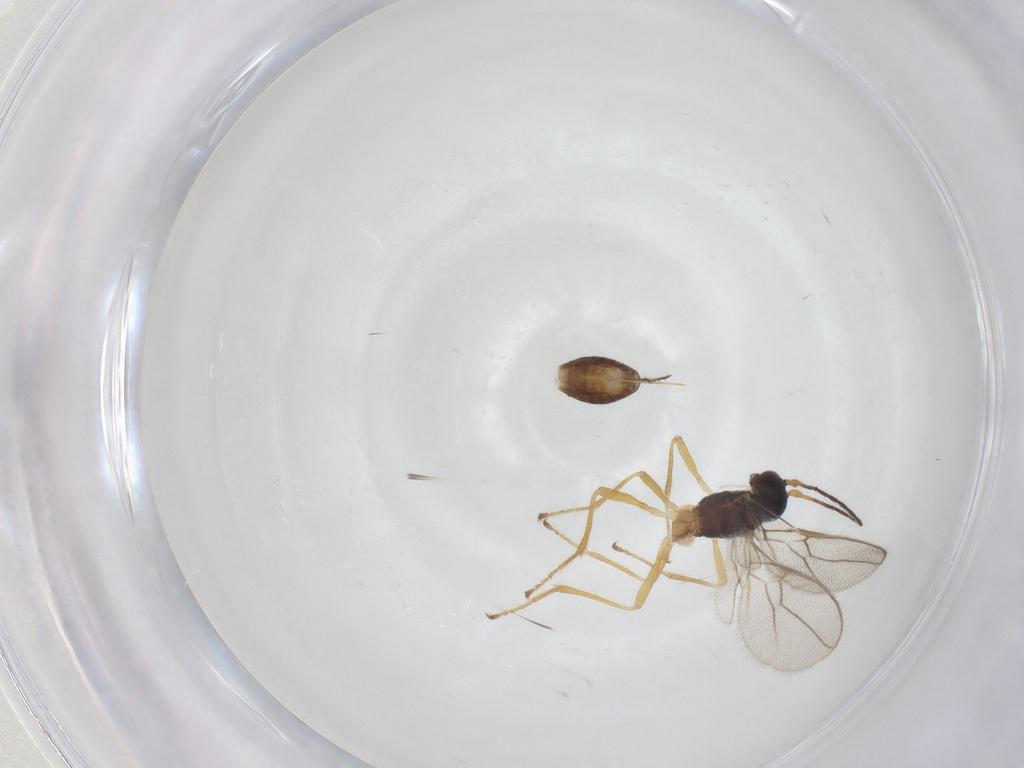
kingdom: Animalia
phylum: Arthropoda
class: Insecta
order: Hymenoptera
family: Braconidae
